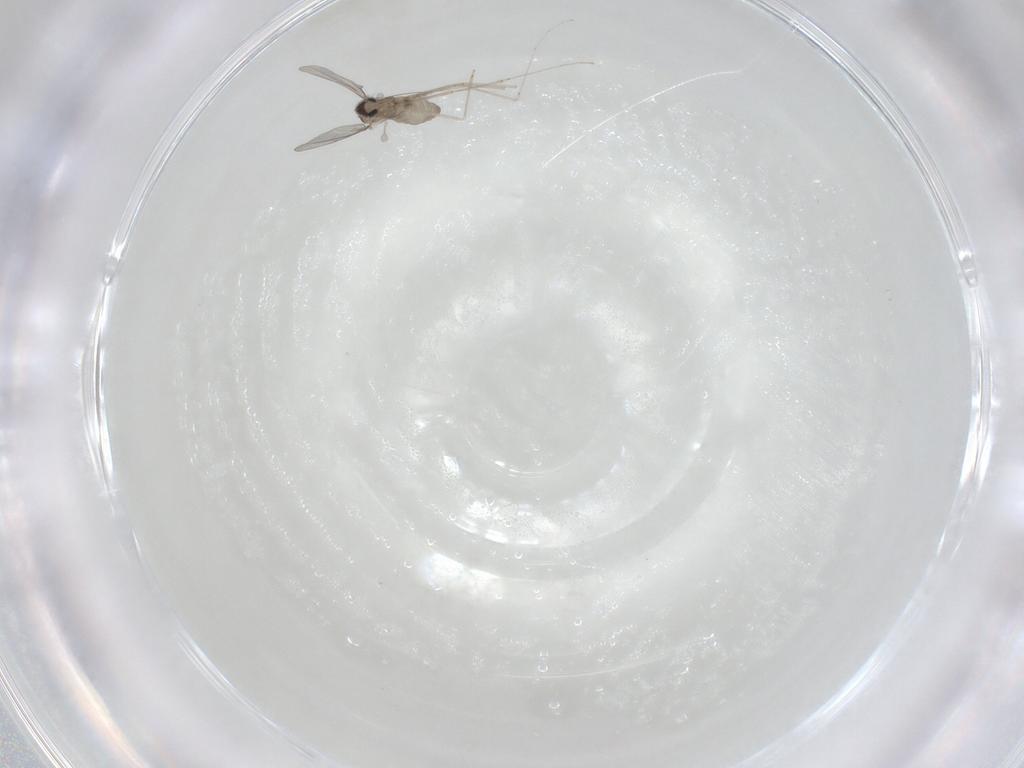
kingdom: Animalia
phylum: Arthropoda
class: Insecta
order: Diptera
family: Cecidomyiidae
